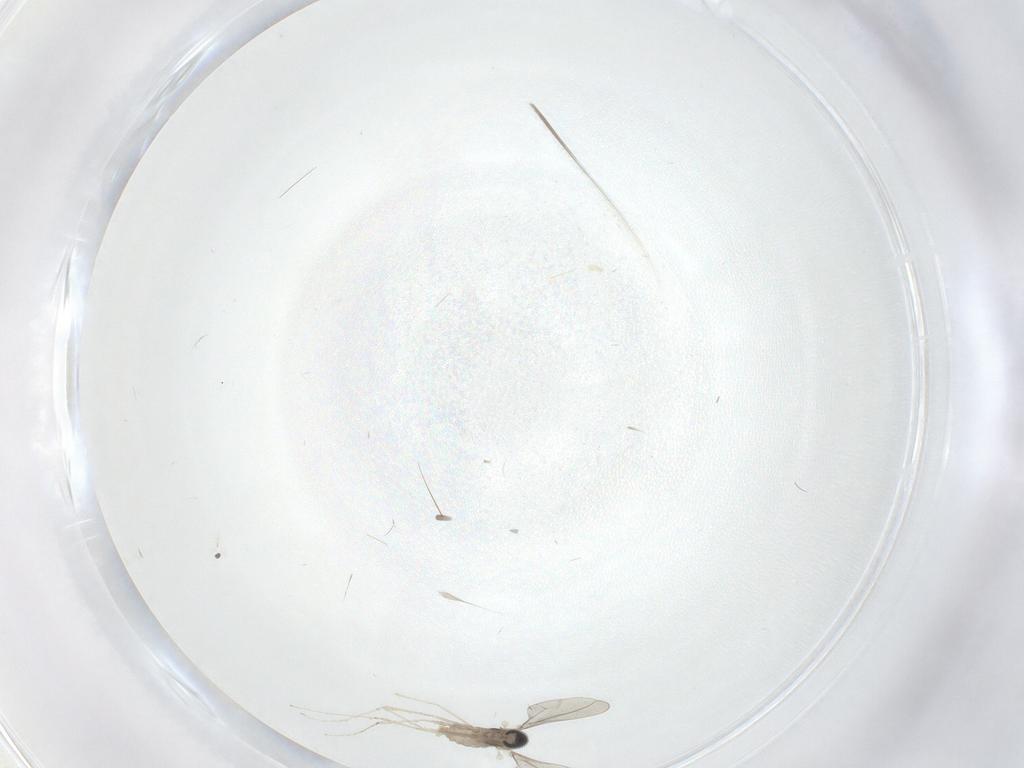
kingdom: Animalia
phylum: Arthropoda
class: Insecta
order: Diptera
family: Cecidomyiidae
